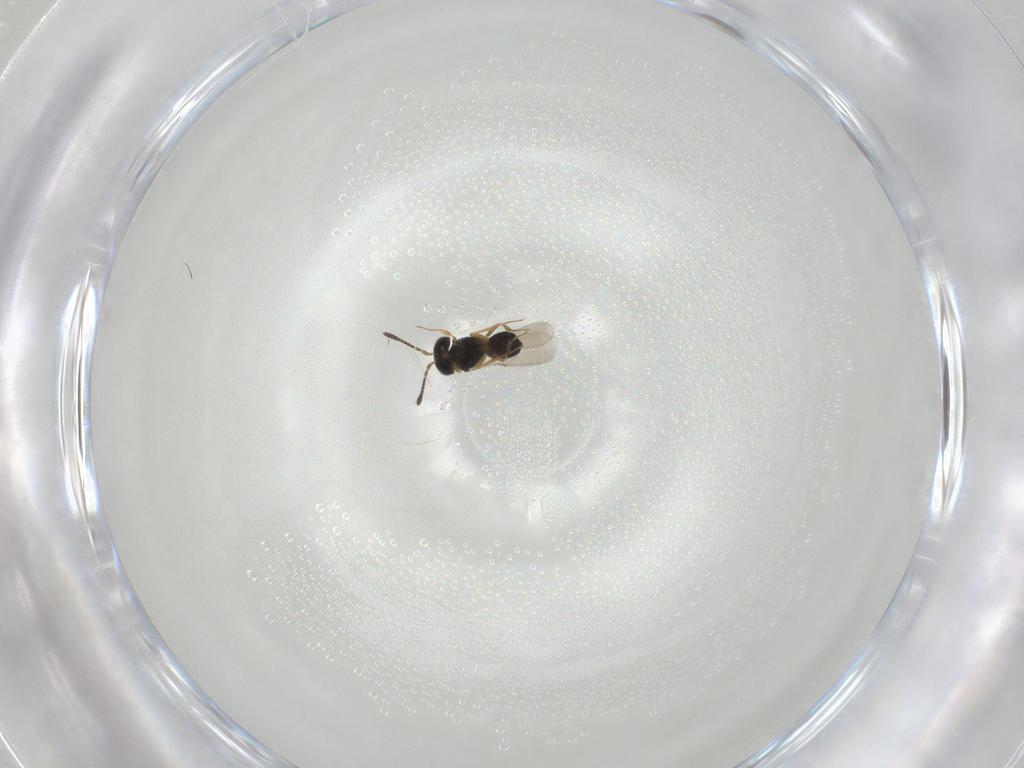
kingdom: Animalia
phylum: Arthropoda
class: Insecta
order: Hymenoptera
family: Scelionidae
